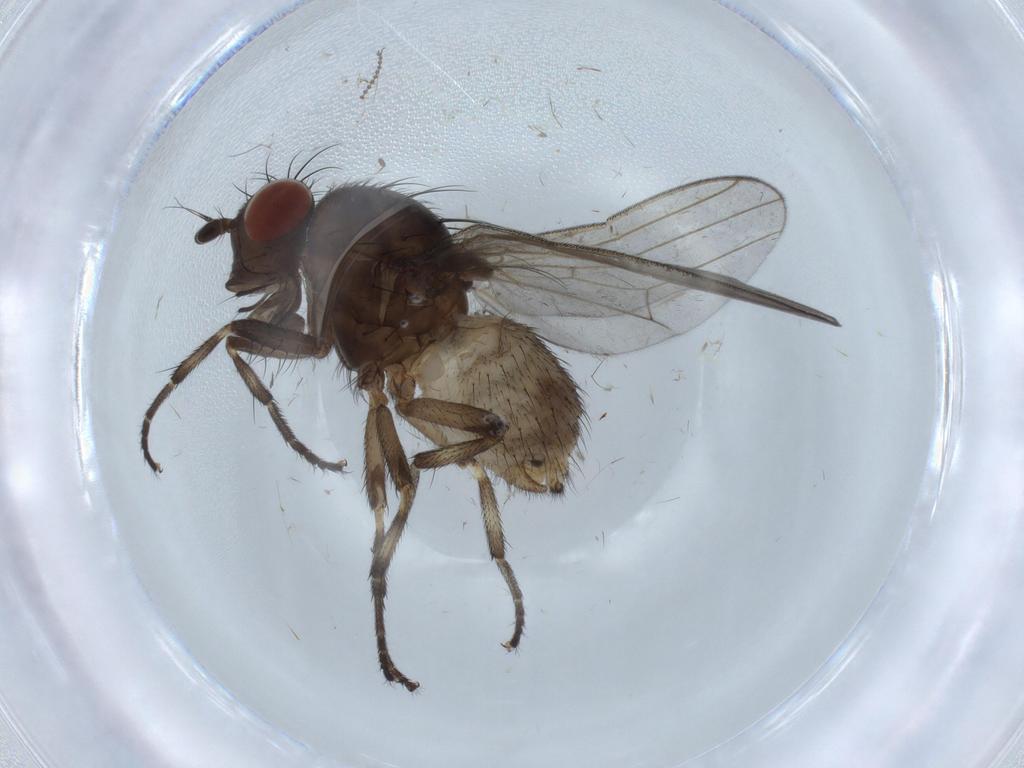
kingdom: Animalia
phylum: Arthropoda
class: Insecta
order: Diptera
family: Cecidomyiidae
